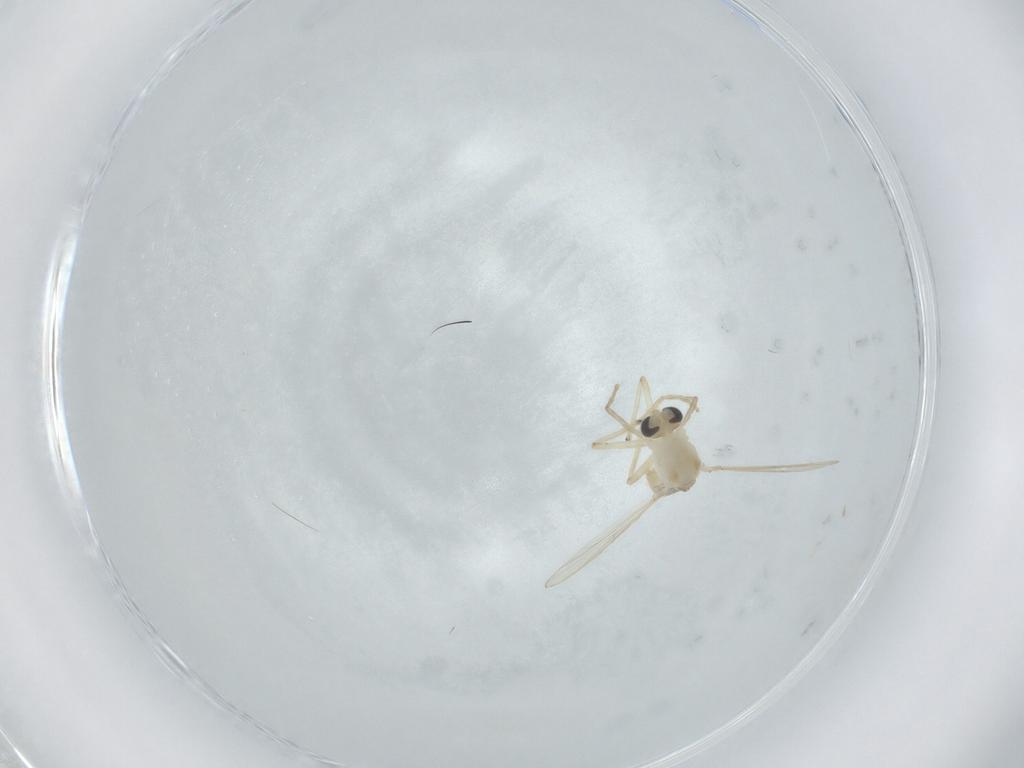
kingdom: Animalia
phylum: Arthropoda
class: Insecta
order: Diptera
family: Chironomidae
